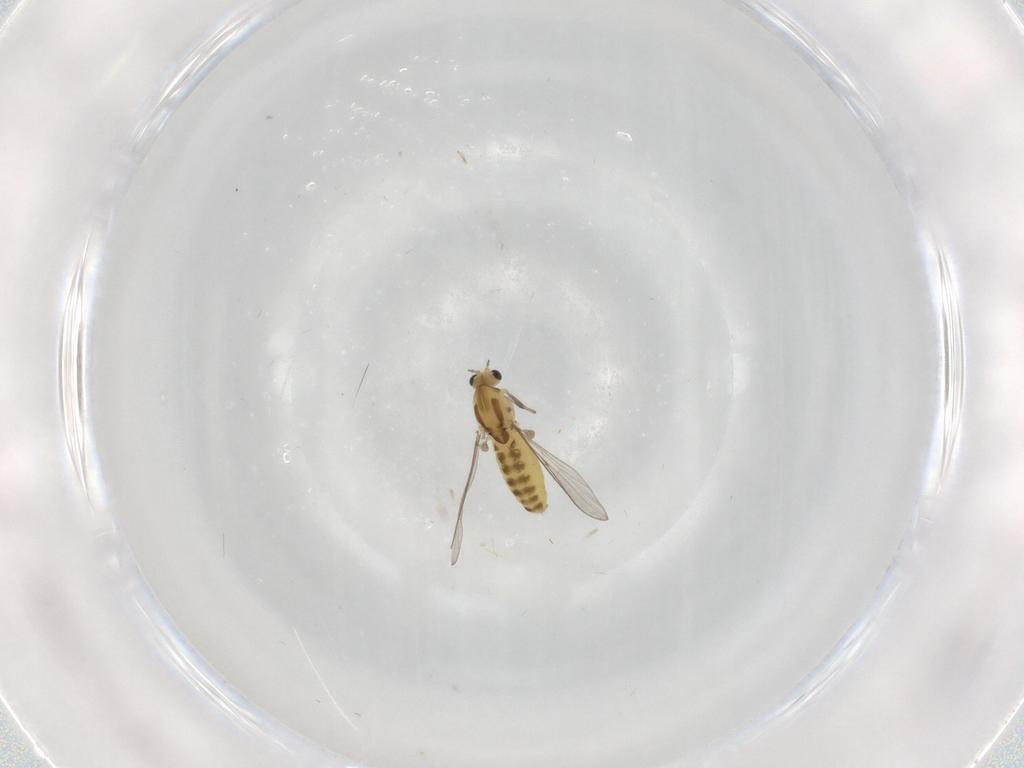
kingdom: Animalia
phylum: Arthropoda
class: Insecta
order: Diptera
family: Chironomidae
